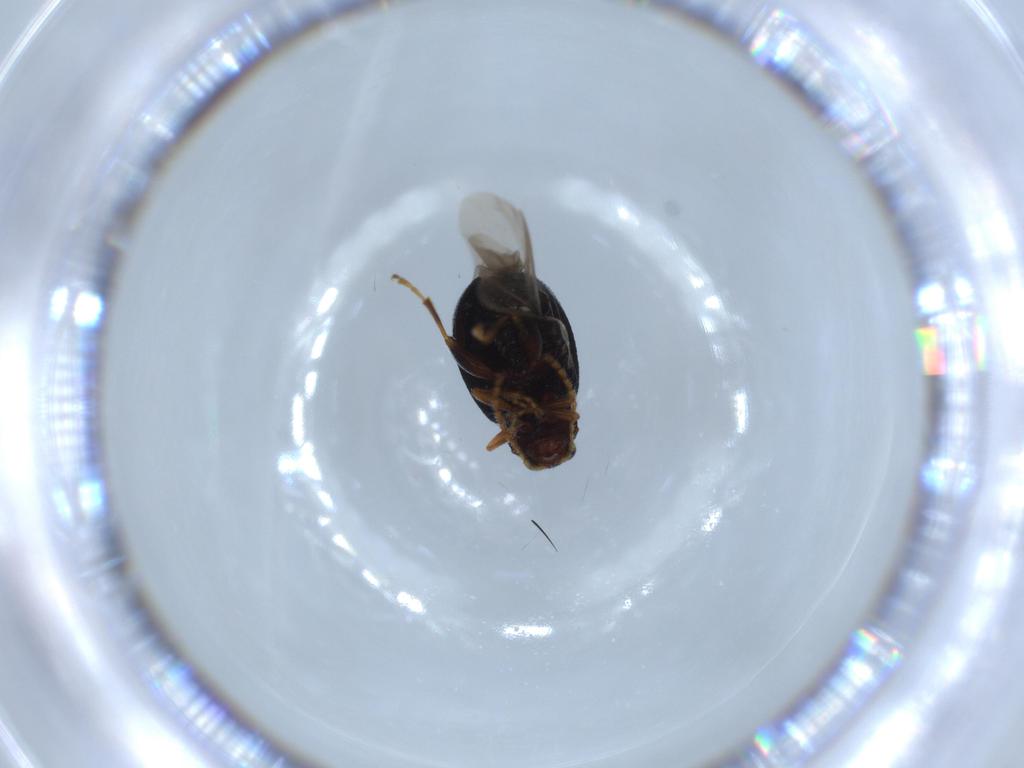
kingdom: Animalia
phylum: Arthropoda
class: Insecta
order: Coleoptera
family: Chrysomelidae
